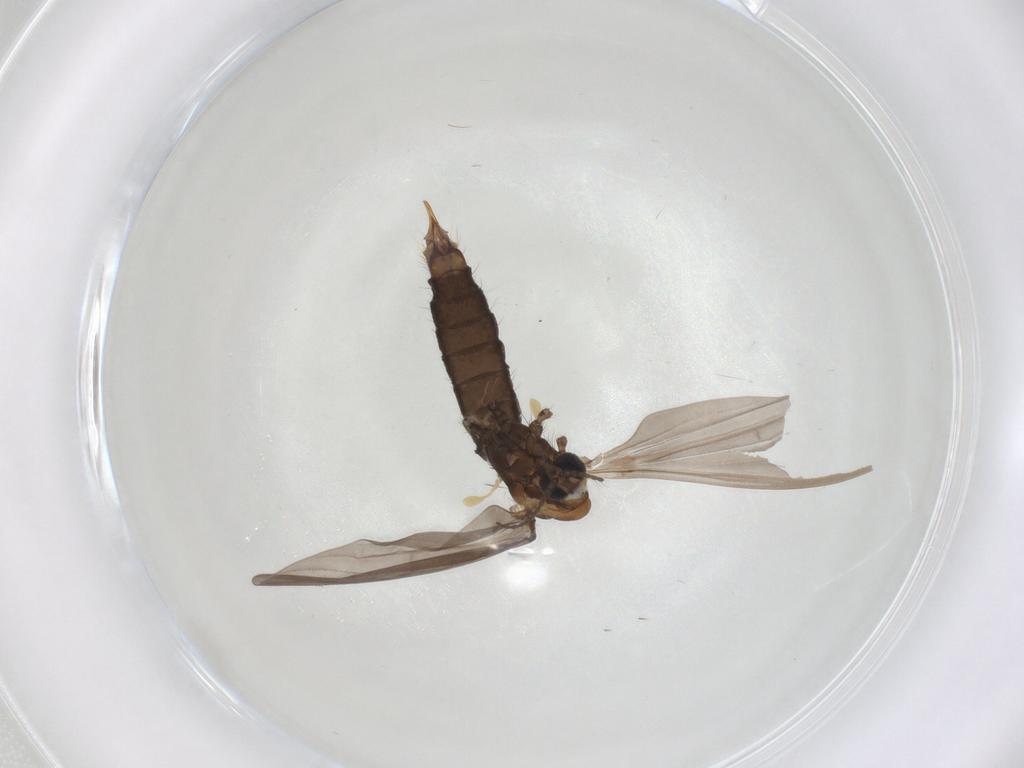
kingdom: Animalia
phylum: Arthropoda
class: Insecta
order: Diptera
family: Limoniidae
